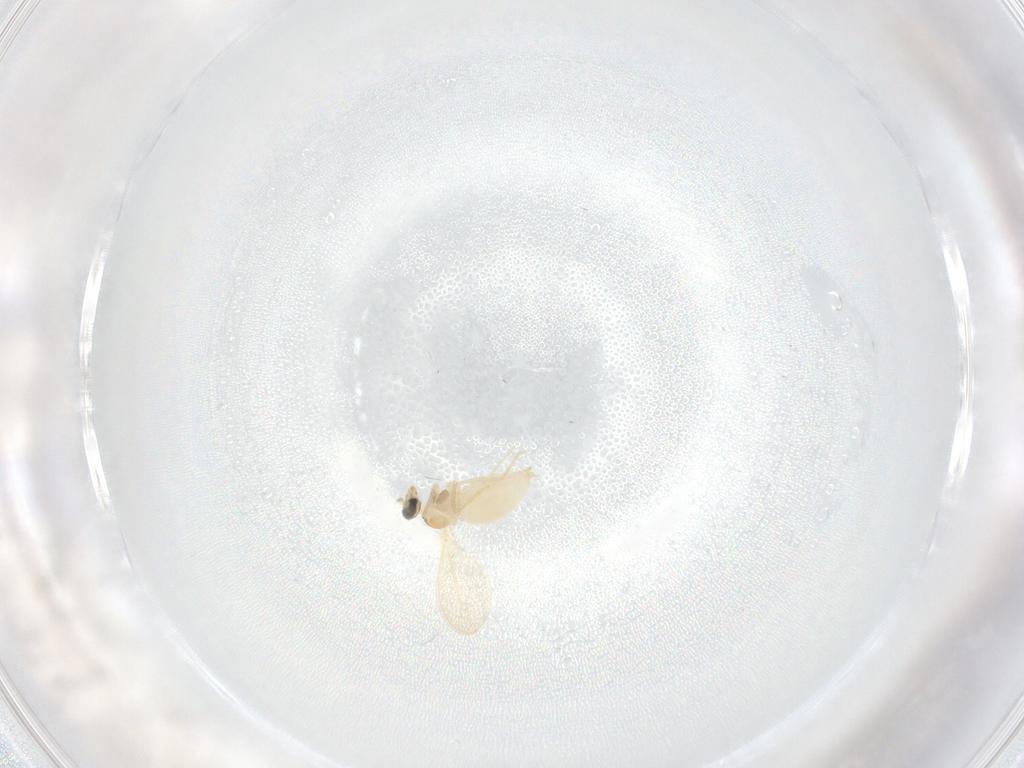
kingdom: Animalia
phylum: Arthropoda
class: Insecta
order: Diptera
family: Cecidomyiidae
